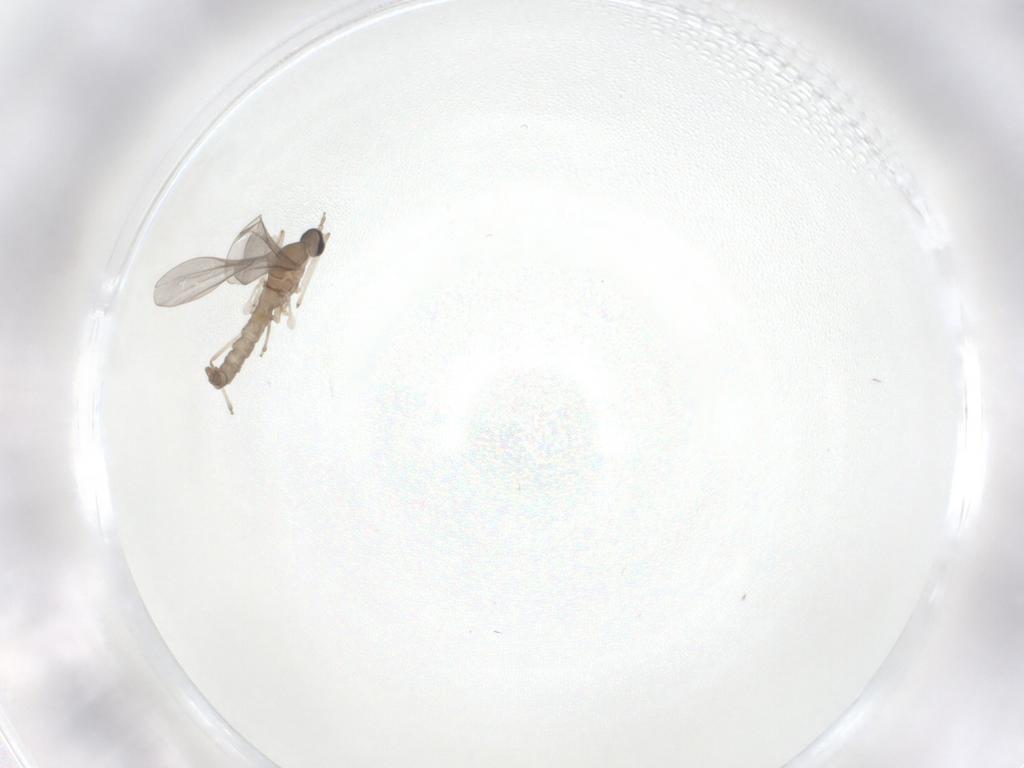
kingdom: Animalia
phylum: Arthropoda
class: Insecta
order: Diptera
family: Cecidomyiidae
